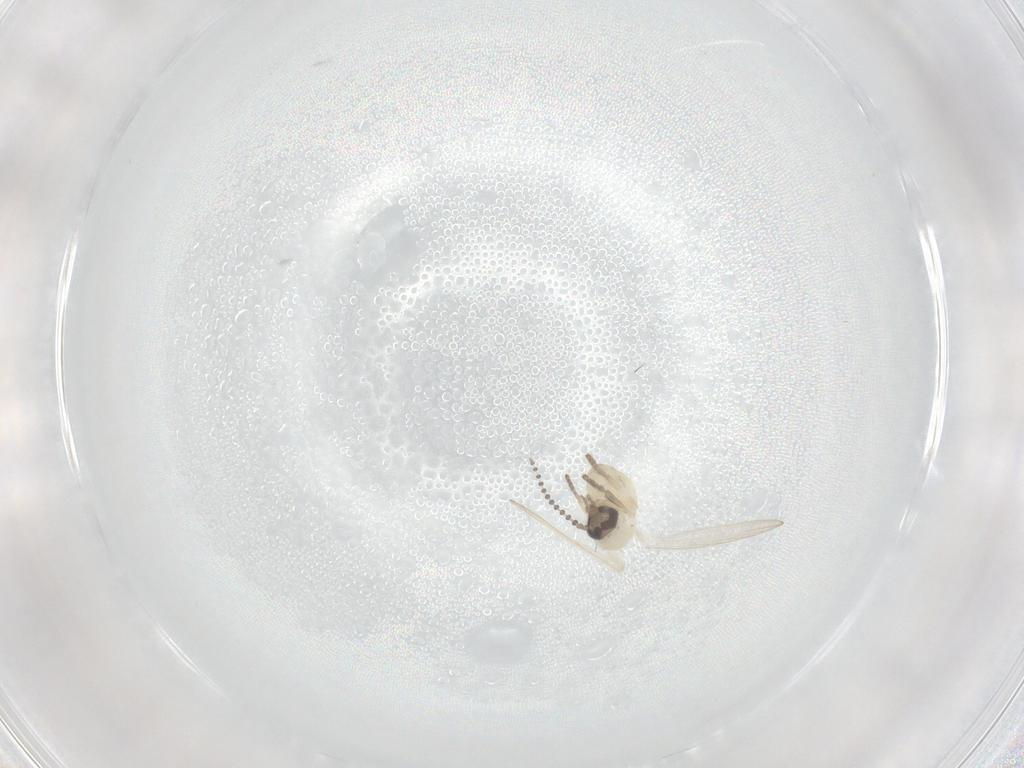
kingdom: Animalia
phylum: Arthropoda
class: Insecta
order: Diptera
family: Psychodidae
